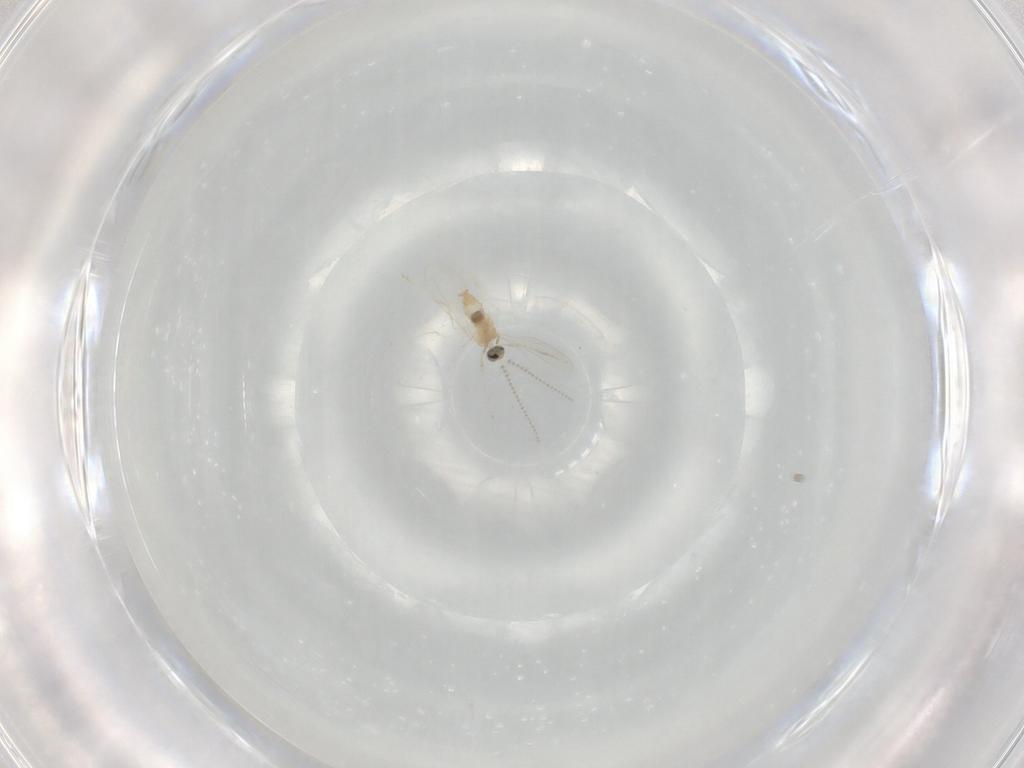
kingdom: Animalia
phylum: Arthropoda
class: Insecta
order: Diptera
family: Cecidomyiidae
